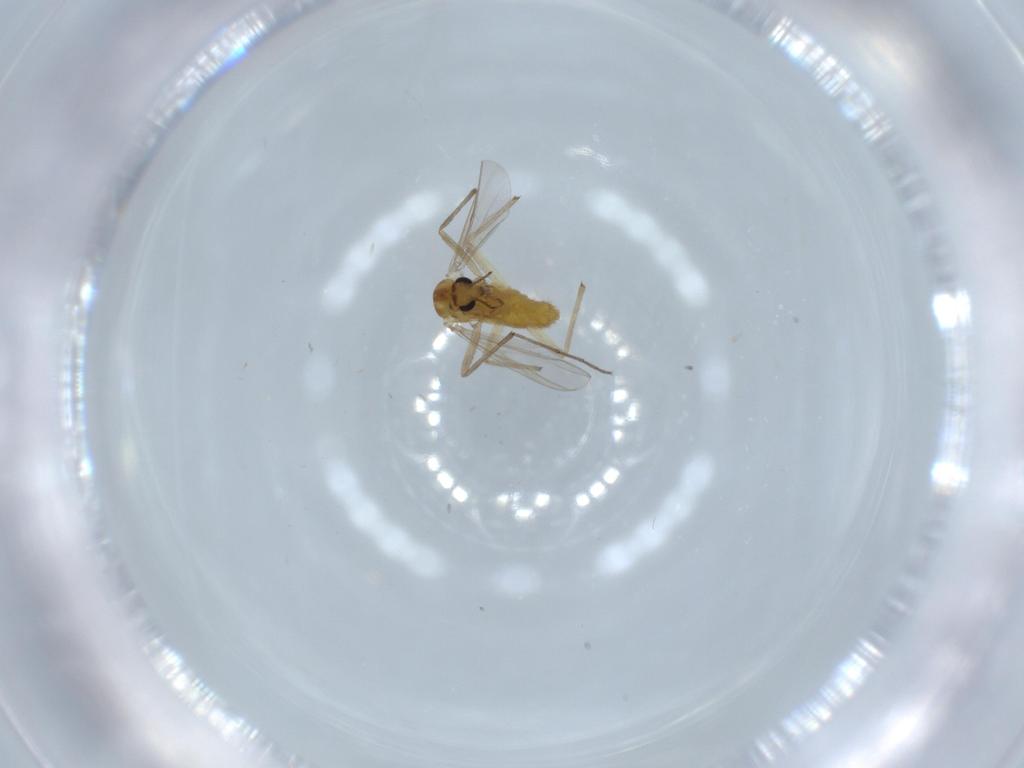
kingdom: Animalia
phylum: Arthropoda
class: Insecta
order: Diptera
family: Chironomidae
